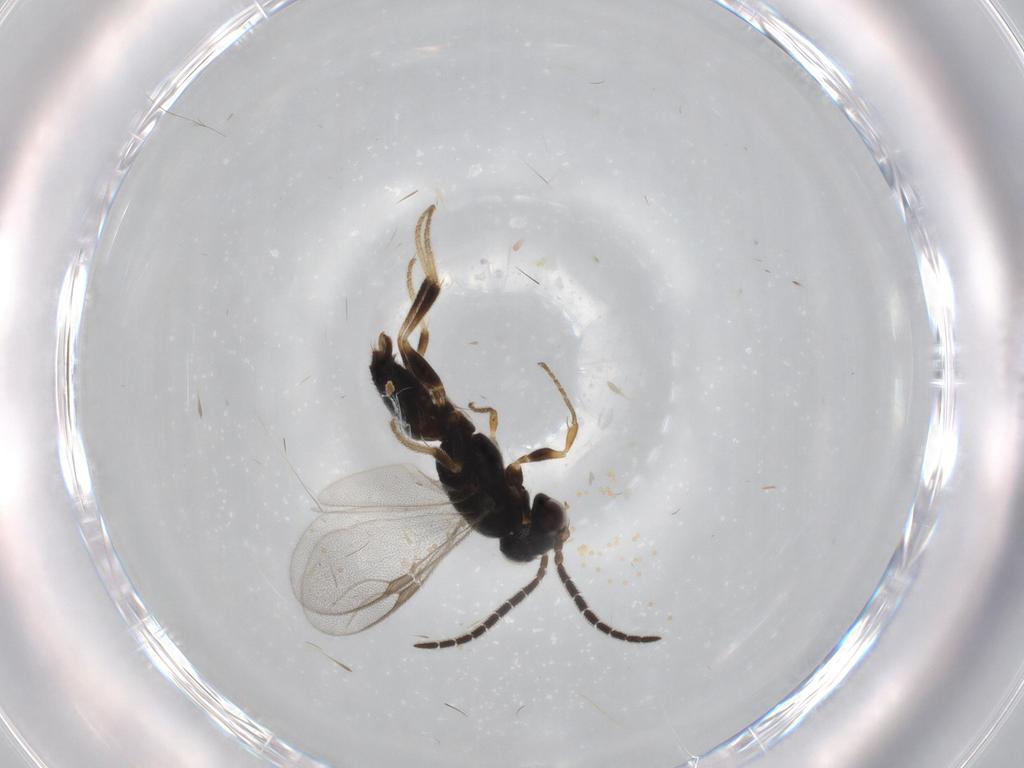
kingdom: Animalia
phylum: Arthropoda
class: Insecta
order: Hymenoptera
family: Dryinidae
